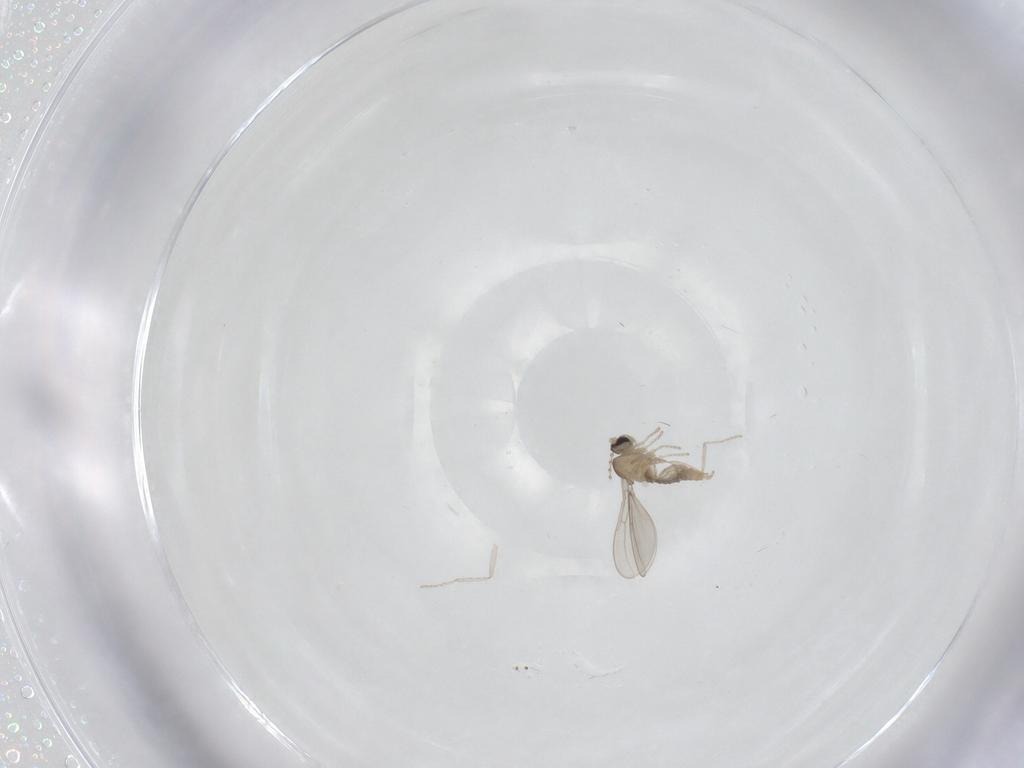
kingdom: Animalia
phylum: Arthropoda
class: Insecta
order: Diptera
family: Cecidomyiidae
